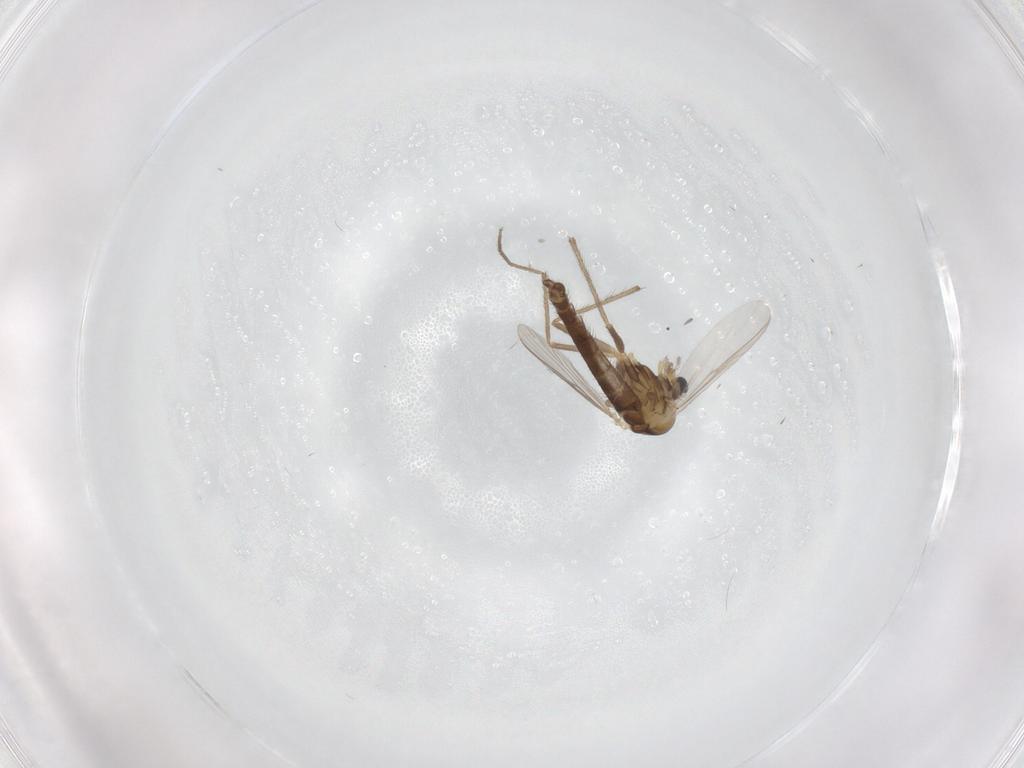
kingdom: Animalia
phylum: Arthropoda
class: Insecta
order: Diptera
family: Chironomidae
